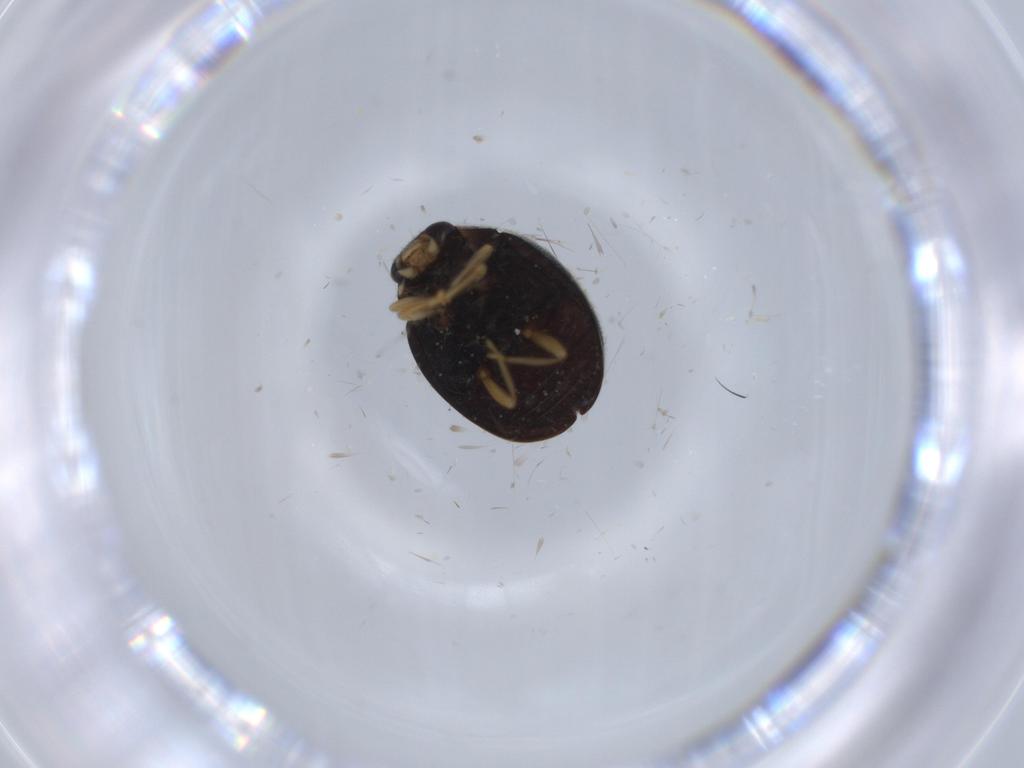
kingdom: Animalia
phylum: Arthropoda
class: Insecta
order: Coleoptera
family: Coccinellidae
